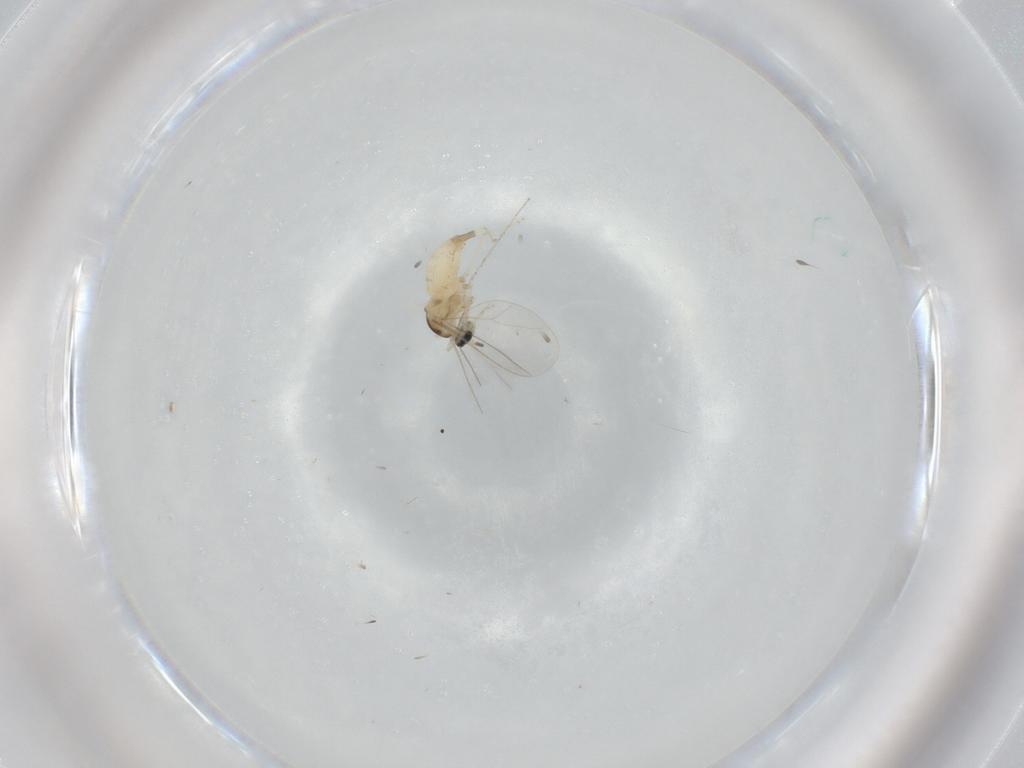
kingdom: Animalia
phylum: Arthropoda
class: Insecta
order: Diptera
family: Cecidomyiidae
